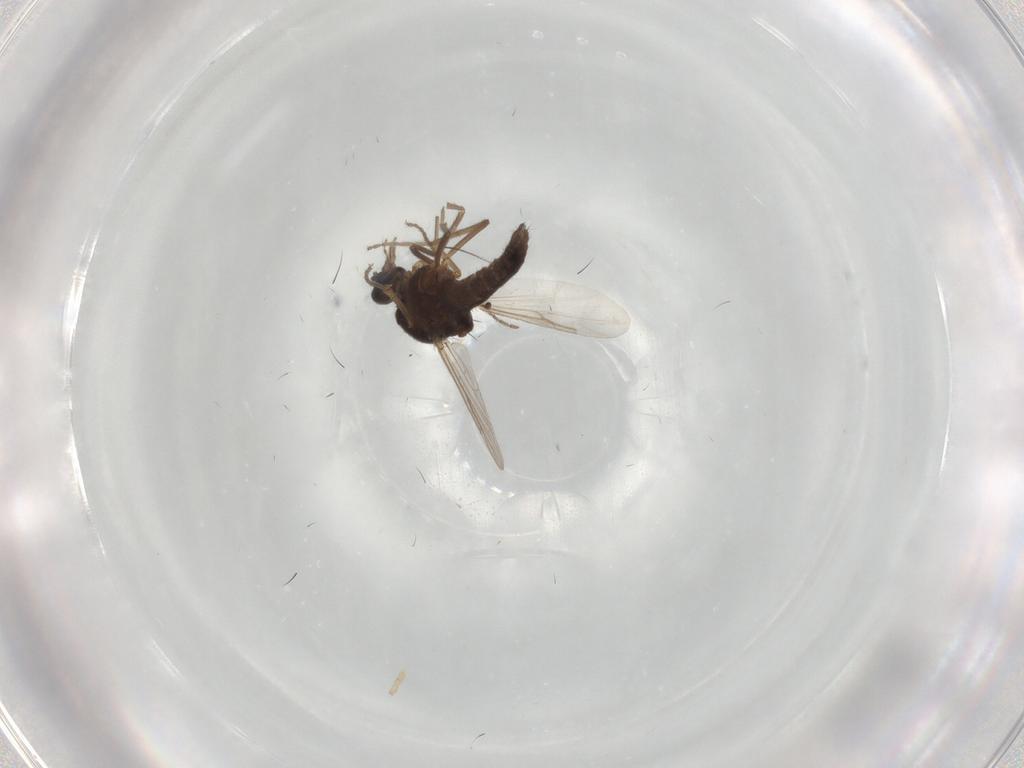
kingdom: Animalia
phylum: Arthropoda
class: Insecta
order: Diptera
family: Ceratopogonidae
